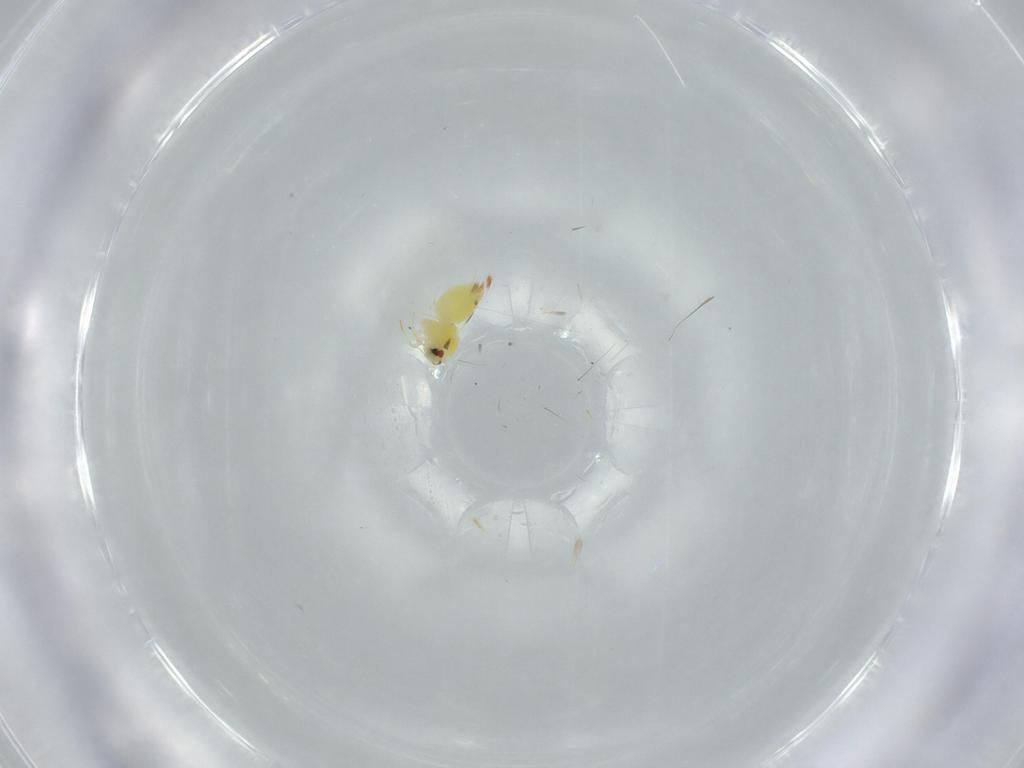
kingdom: Animalia
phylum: Arthropoda
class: Insecta
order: Hemiptera
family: Aleyrodidae
